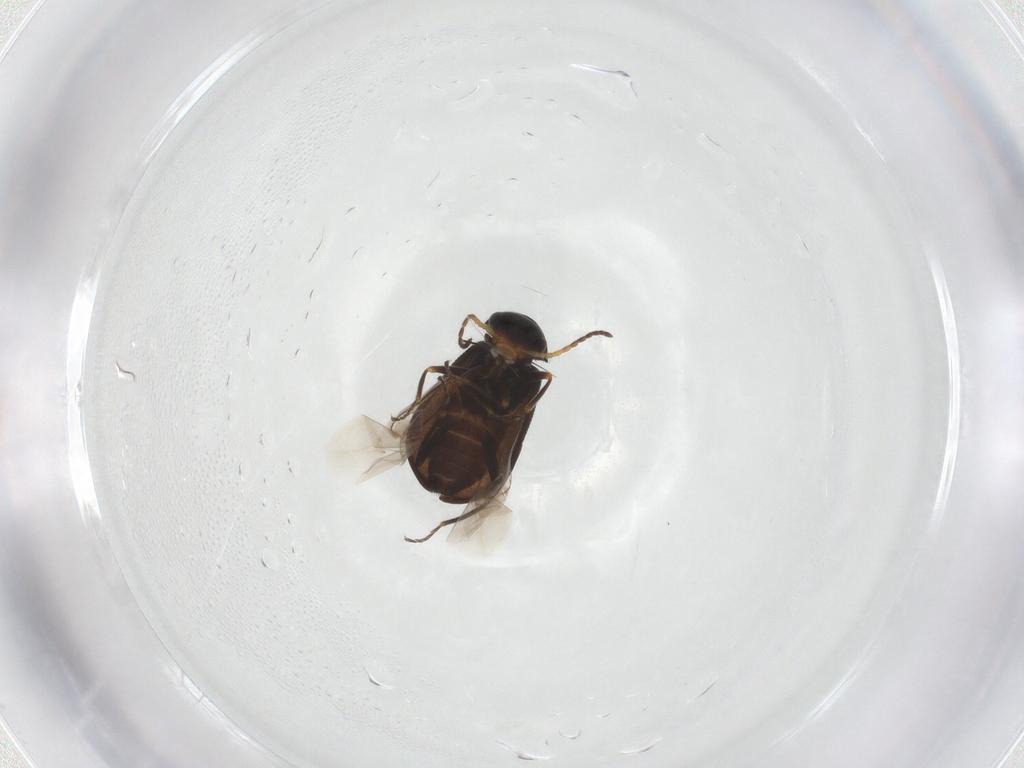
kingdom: Animalia
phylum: Arthropoda
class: Insecta
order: Coleoptera
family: Melyridae
